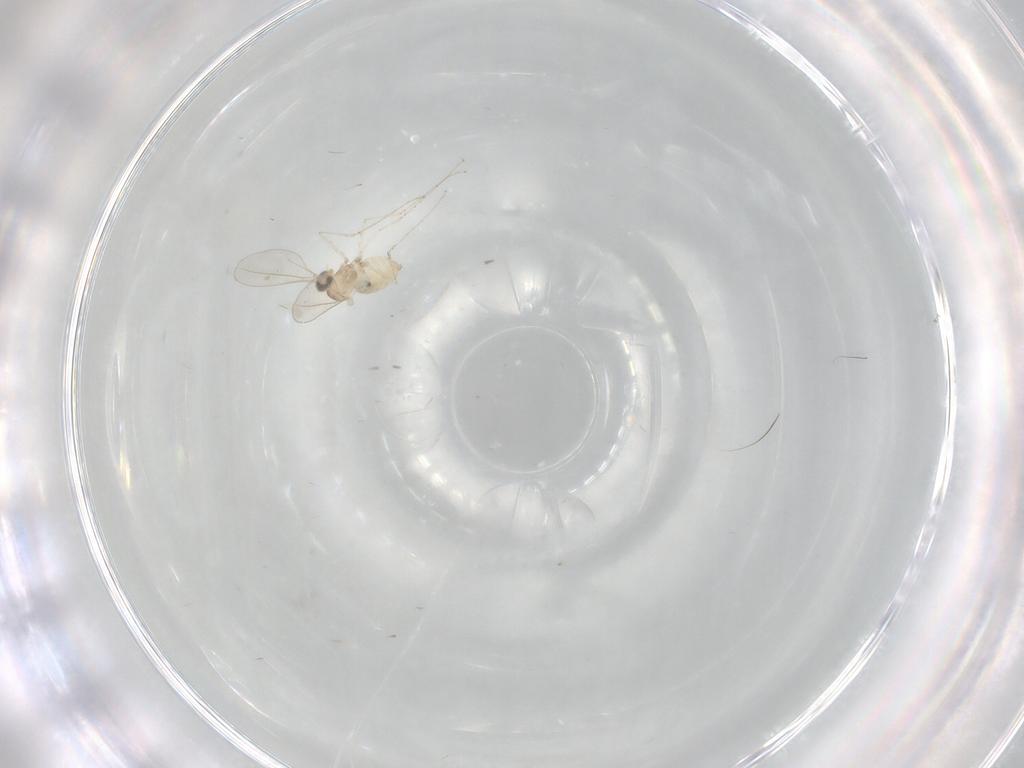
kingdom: Animalia
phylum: Arthropoda
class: Insecta
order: Diptera
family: Cecidomyiidae
